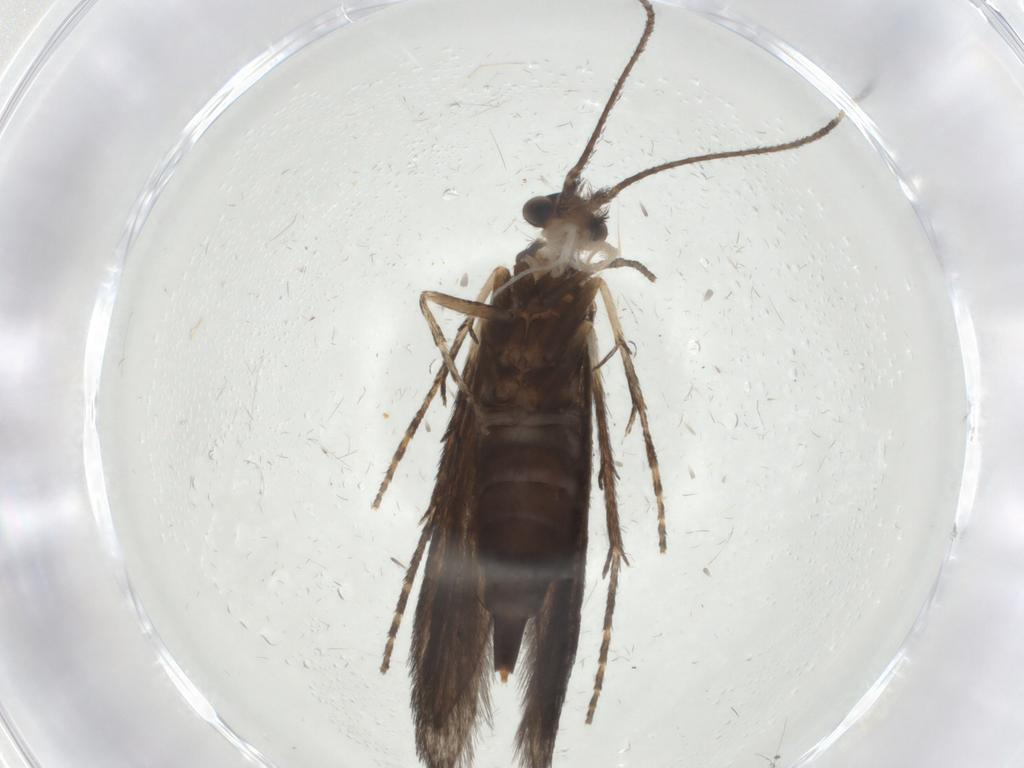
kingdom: Animalia
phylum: Arthropoda
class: Insecta
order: Trichoptera
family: Xiphocentronidae
